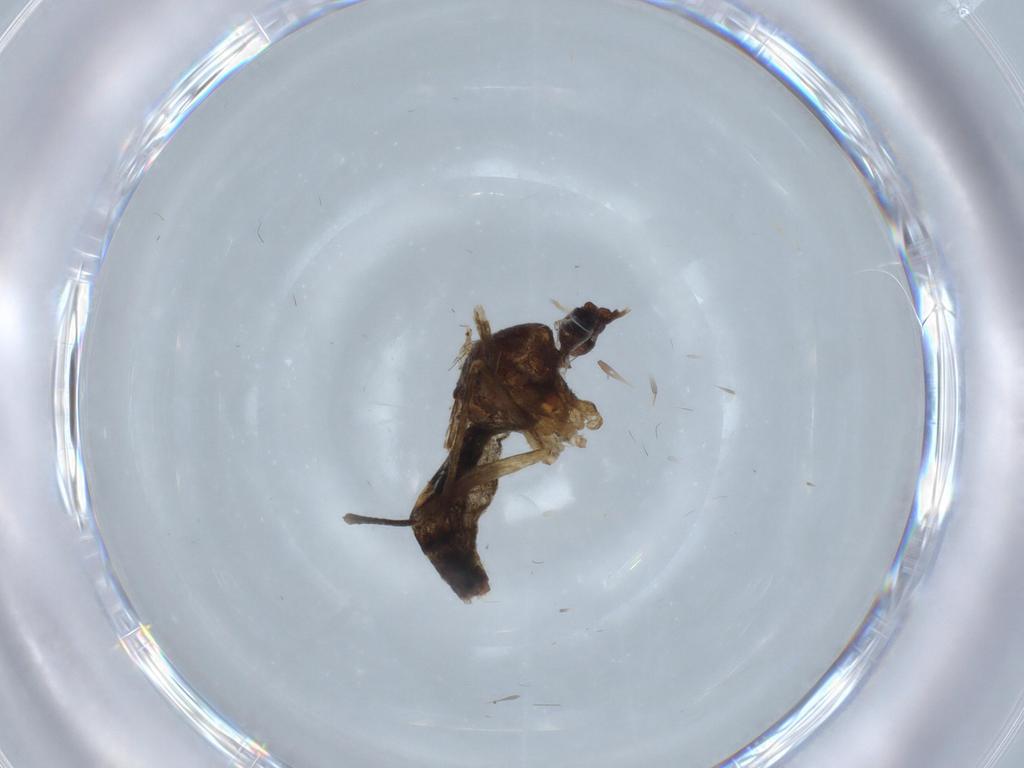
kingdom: Animalia
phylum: Arthropoda
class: Insecta
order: Diptera
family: Cecidomyiidae
